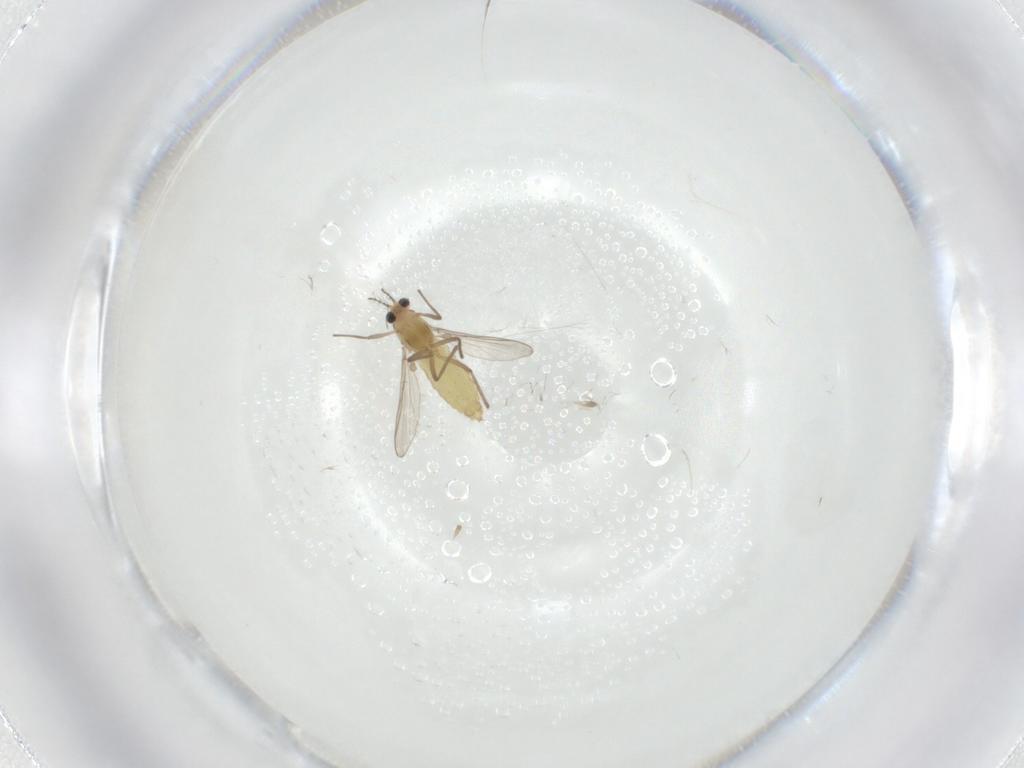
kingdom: Animalia
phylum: Arthropoda
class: Insecta
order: Diptera
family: Chironomidae
